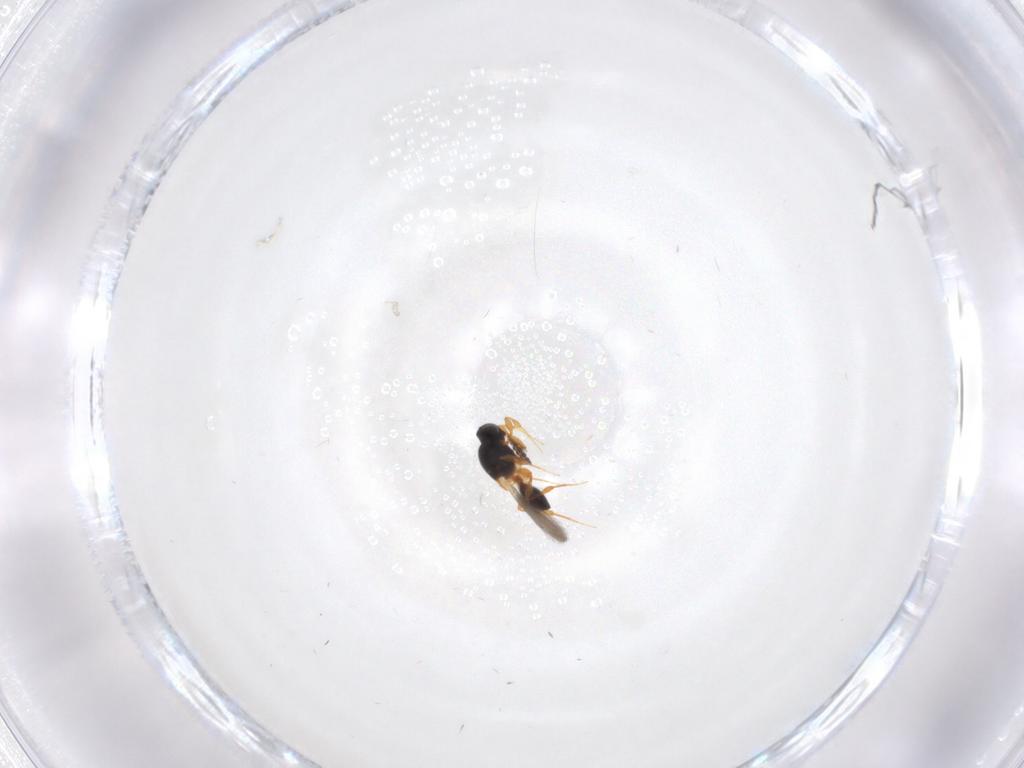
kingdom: Animalia
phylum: Arthropoda
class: Insecta
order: Hymenoptera
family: Platygastridae
